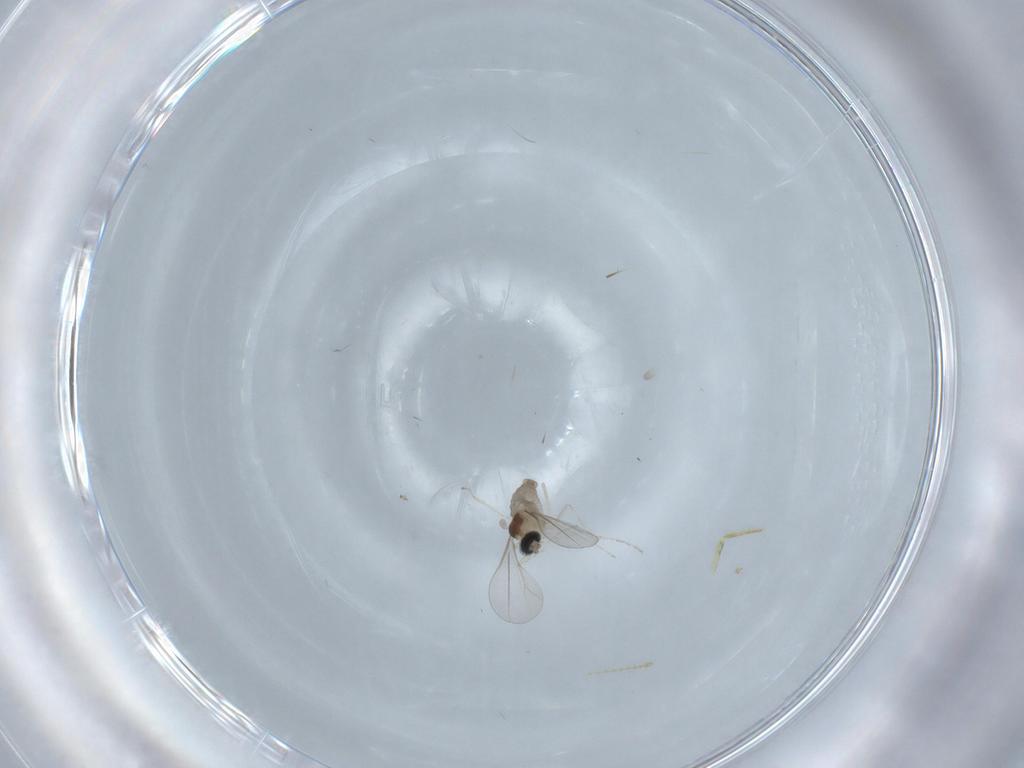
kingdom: Animalia
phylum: Arthropoda
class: Insecta
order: Diptera
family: Cecidomyiidae
